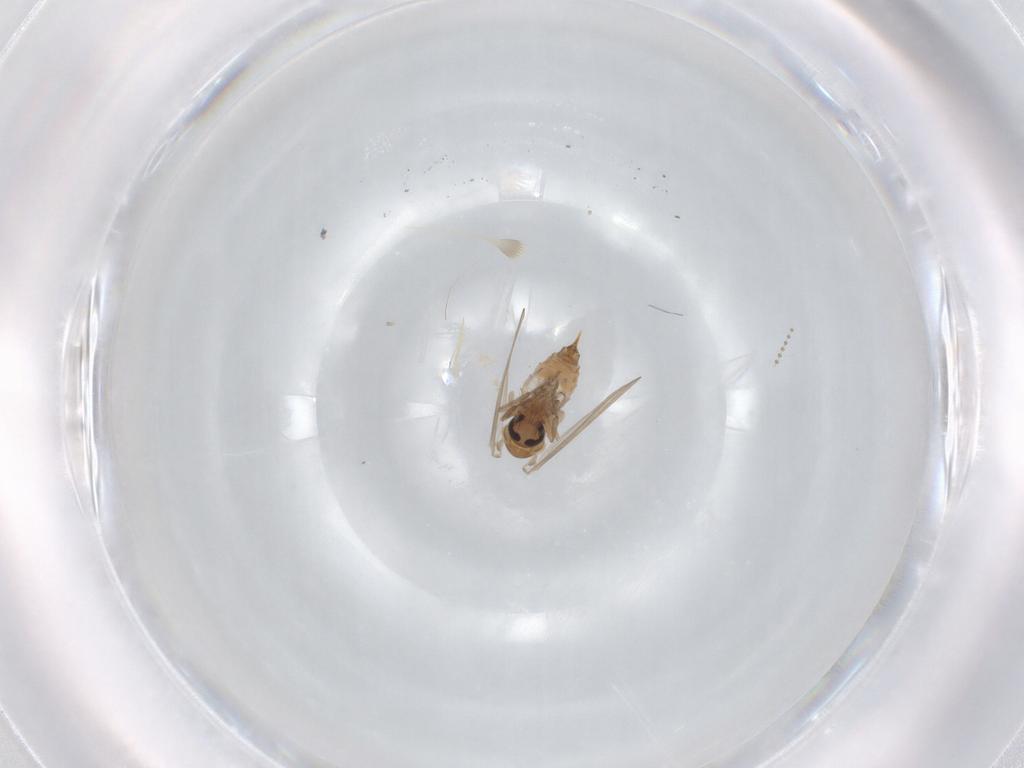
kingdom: Animalia
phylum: Arthropoda
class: Insecta
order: Diptera
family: Psychodidae
